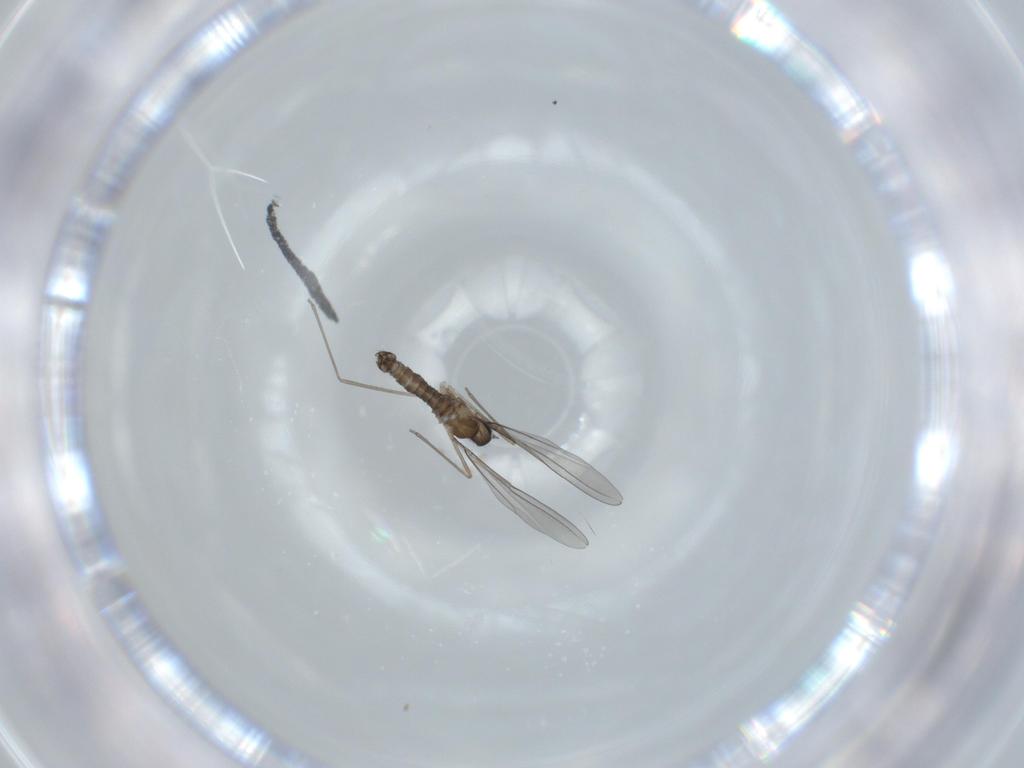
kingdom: Animalia
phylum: Arthropoda
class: Insecta
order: Diptera
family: Cecidomyiidae
